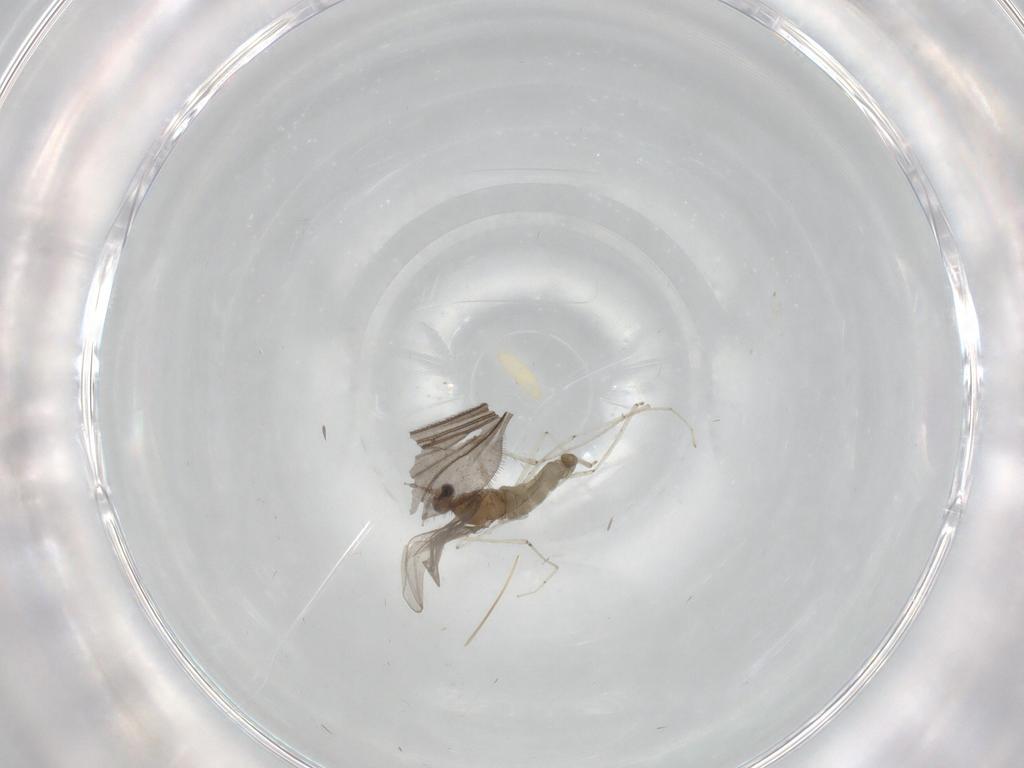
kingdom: Animalia
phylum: Arthropoda
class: Insecta
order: Diptera
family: Cecidomyiidae
